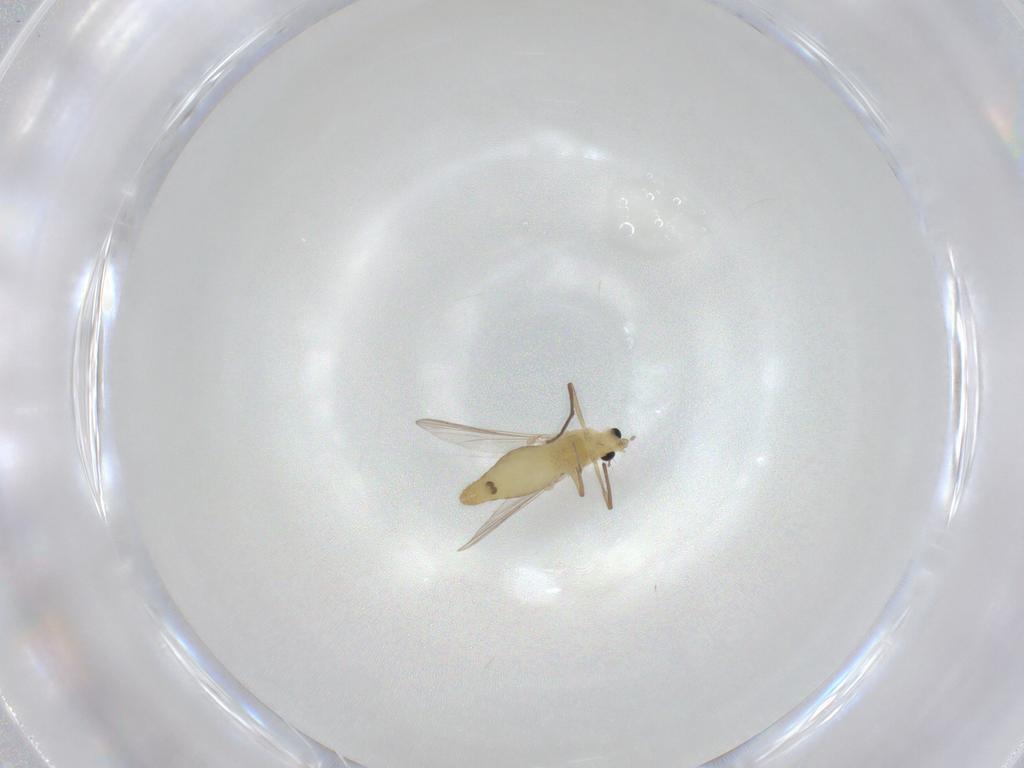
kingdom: Animalia
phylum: Arthropoda
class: Insecta
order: Diptera
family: Chironomidae
